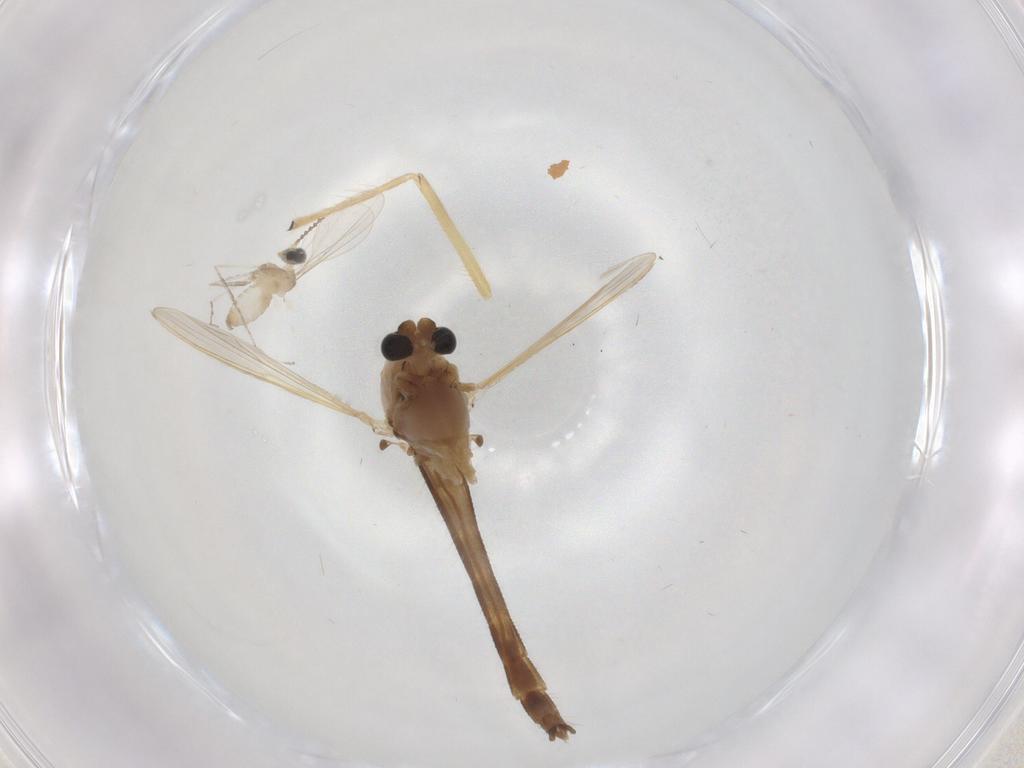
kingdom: Animalia
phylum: Arthropoda
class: Insecta
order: Diptera
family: Chironomidae
